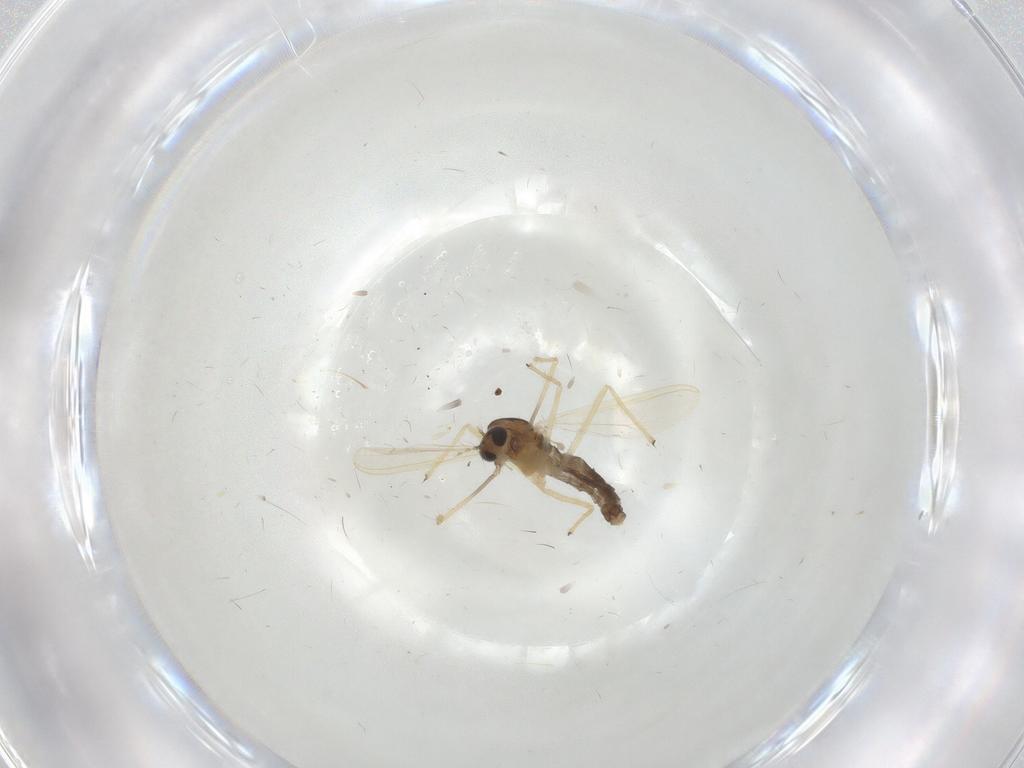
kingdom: Animalia
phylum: Arthropoda
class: Insecta
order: Diptera
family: Chironomidae
